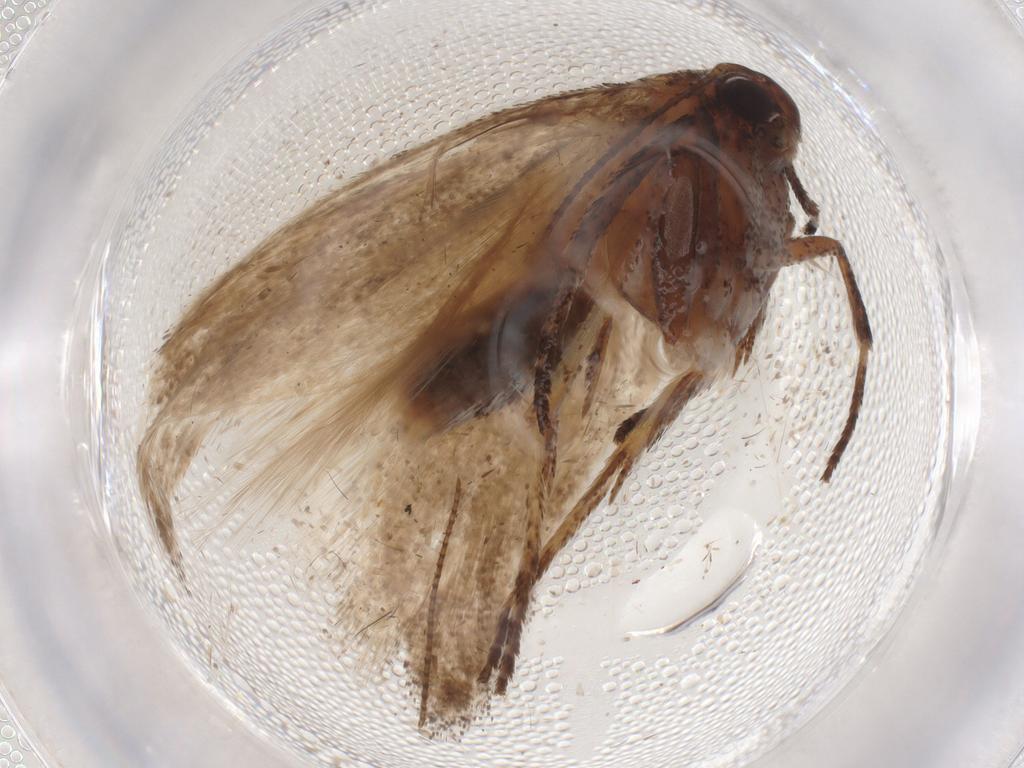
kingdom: Animalia
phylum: Arthropoda
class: Insecta
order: Lepidoptera
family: Cosmopterigidae
